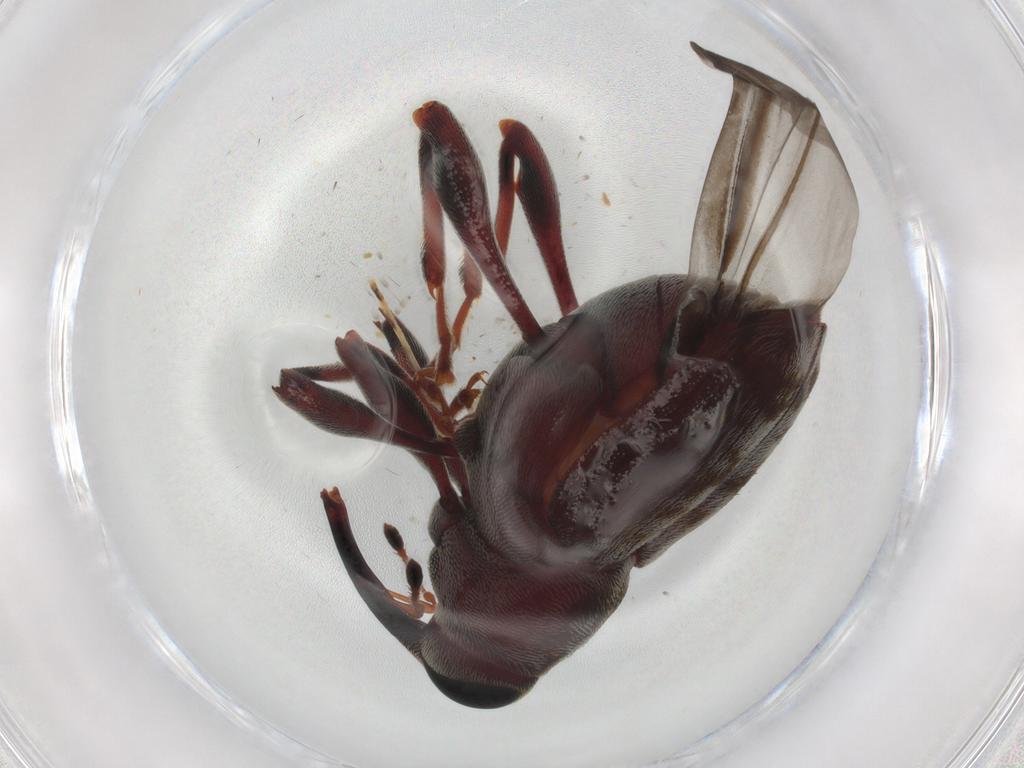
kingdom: Animalia
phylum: Arthropoda
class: Insecta
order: Coleoptera
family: Curculionidae
